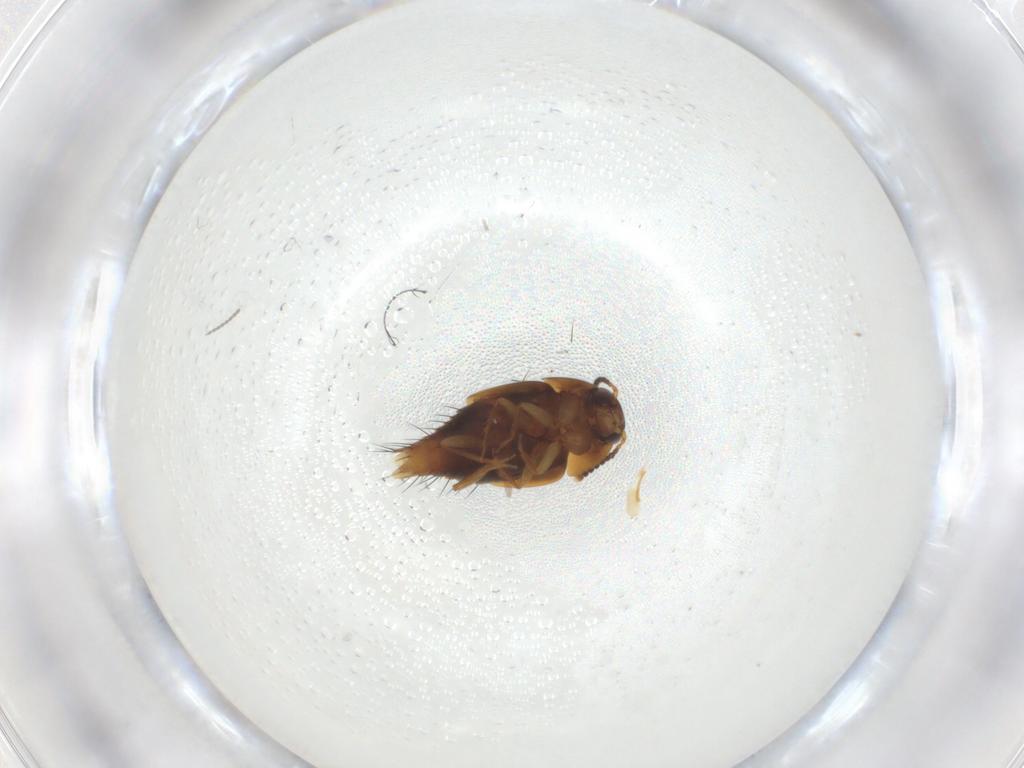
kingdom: Animalia
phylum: Arthropoda
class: Insecta
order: Coleoptera
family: Staphylinidae
